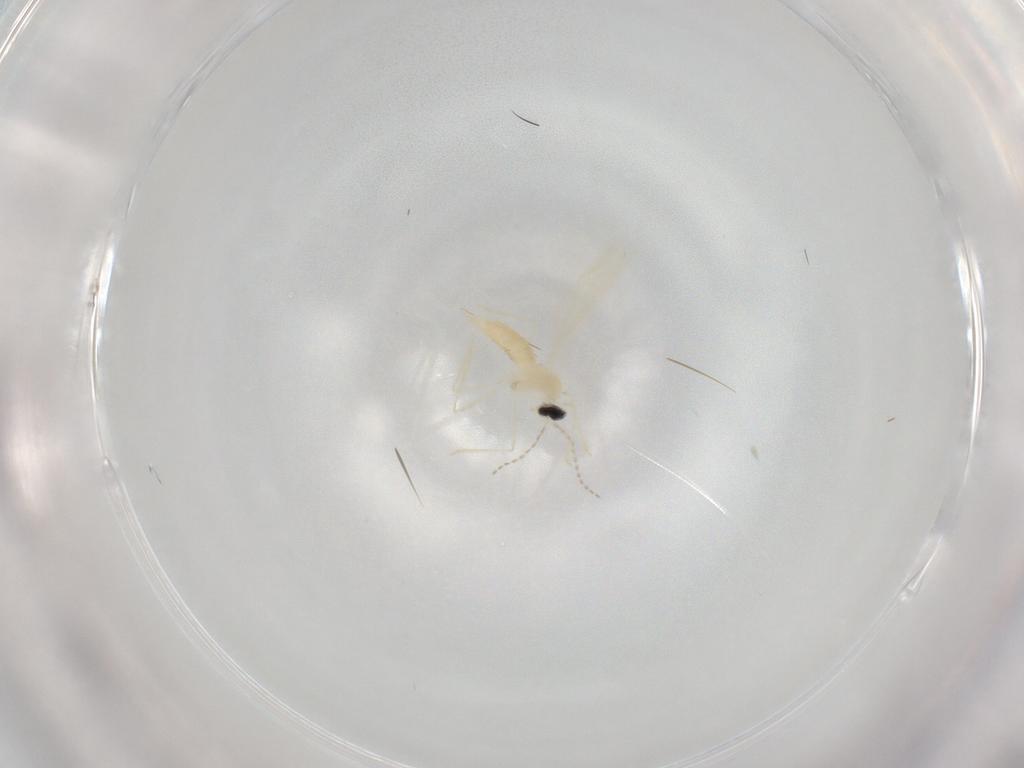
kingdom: Animalia
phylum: Arthropoda
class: Insecta
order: Diptera
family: Cecidomyiidae
